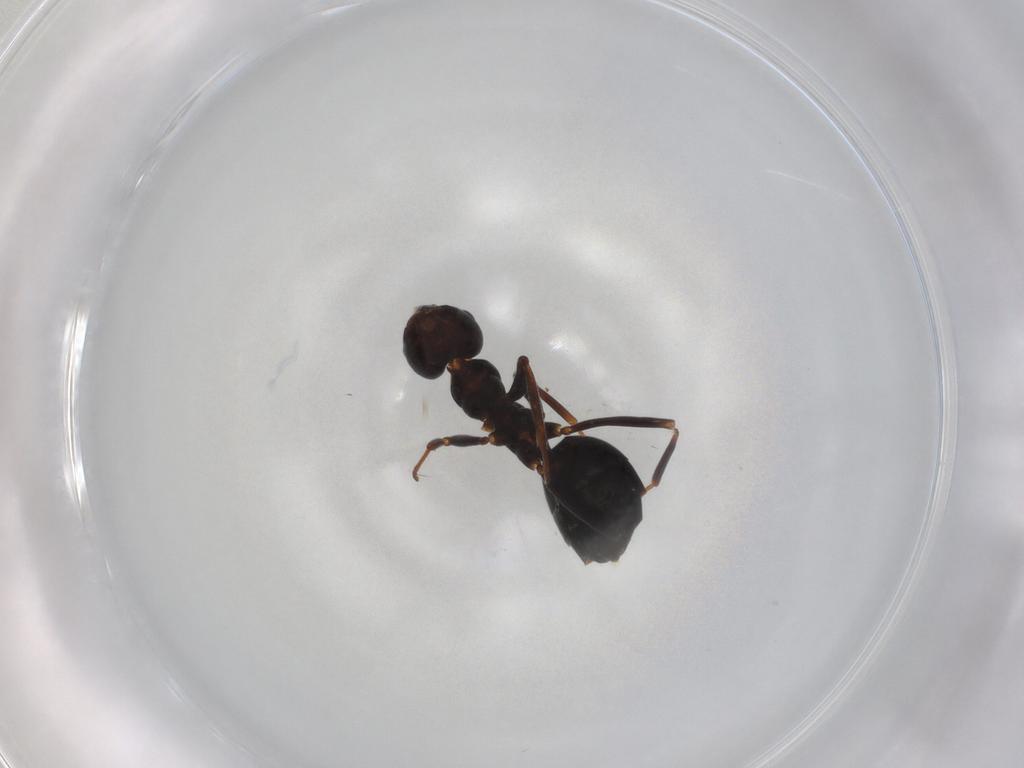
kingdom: Animalia
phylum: Arthropoda
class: Insecta
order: Hymenoptera
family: Formicidae
